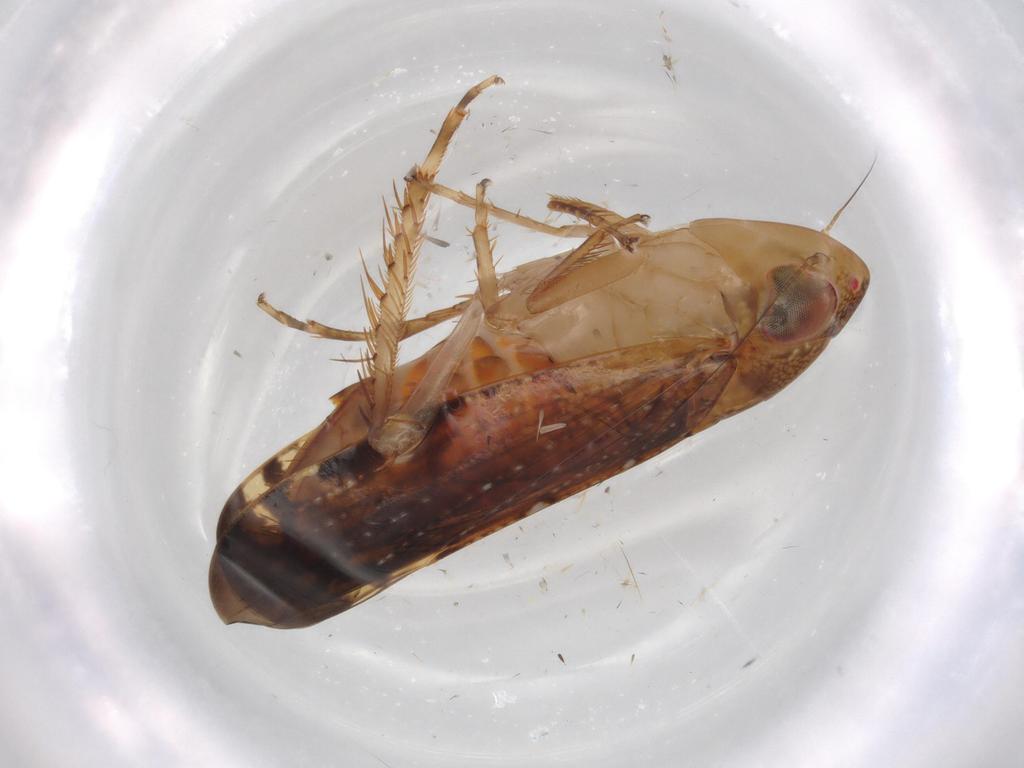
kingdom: Animalia
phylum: Arthropoda
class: Insecta
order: Hemiptera
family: Cicadellidae
